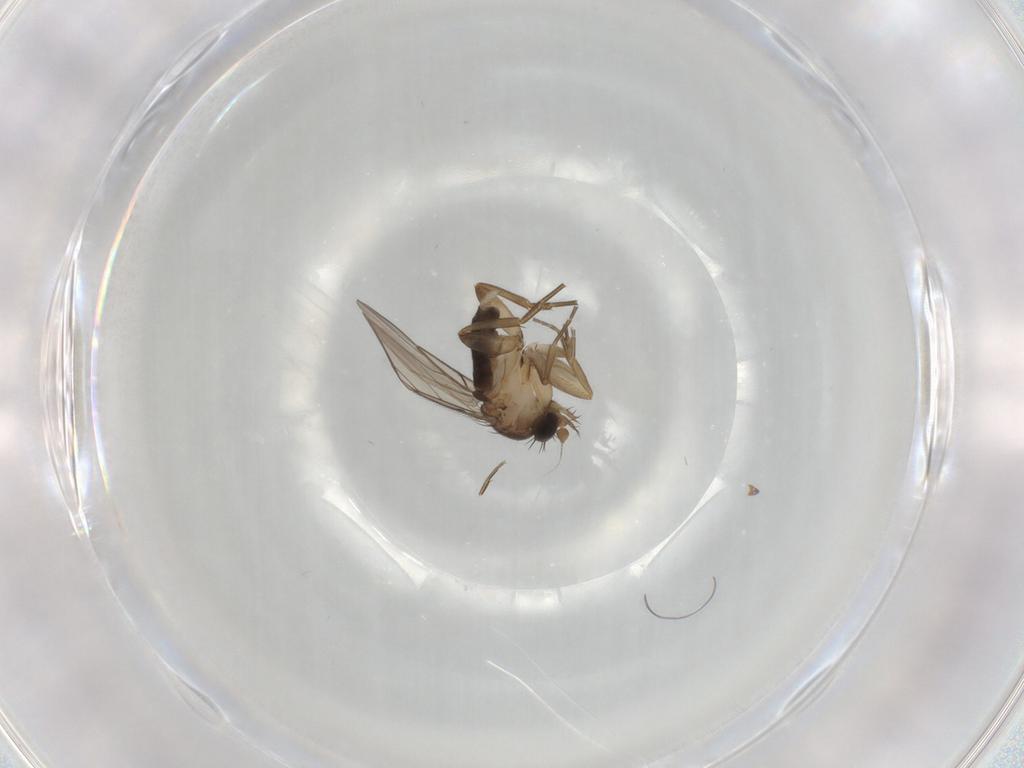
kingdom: Animalia
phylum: Arthropoda
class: Insecta
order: Diptera
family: Phoridae
